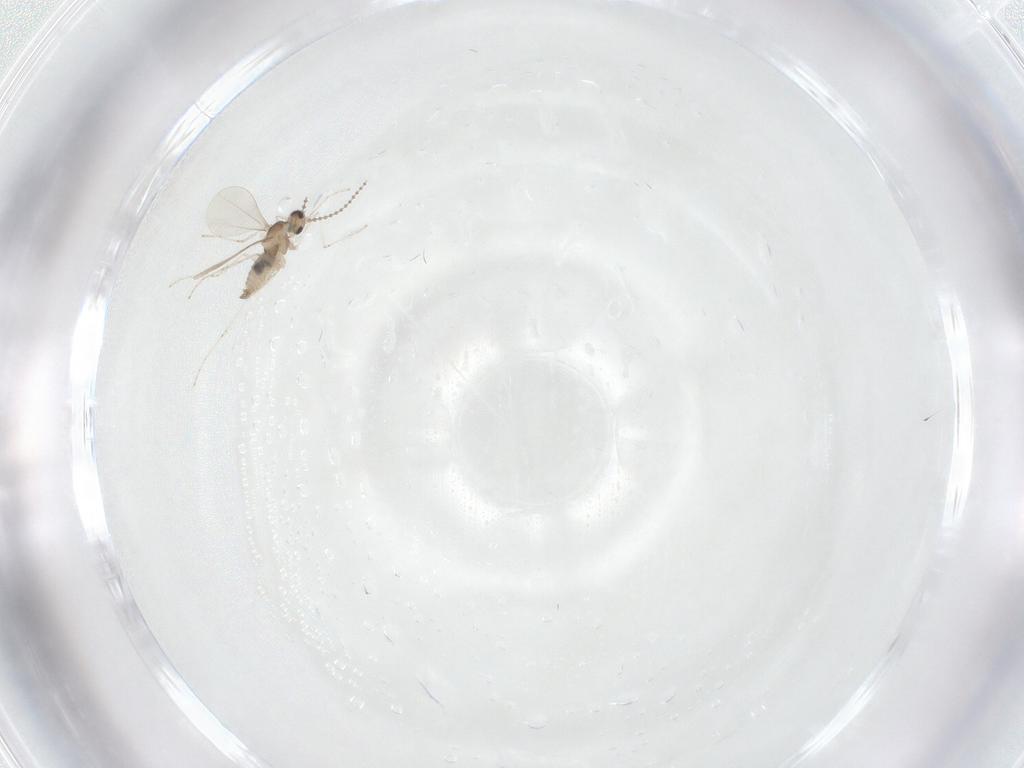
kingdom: Animalia
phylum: Arthropoda
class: Insecta
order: Diptera
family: Cecidomyiidae
